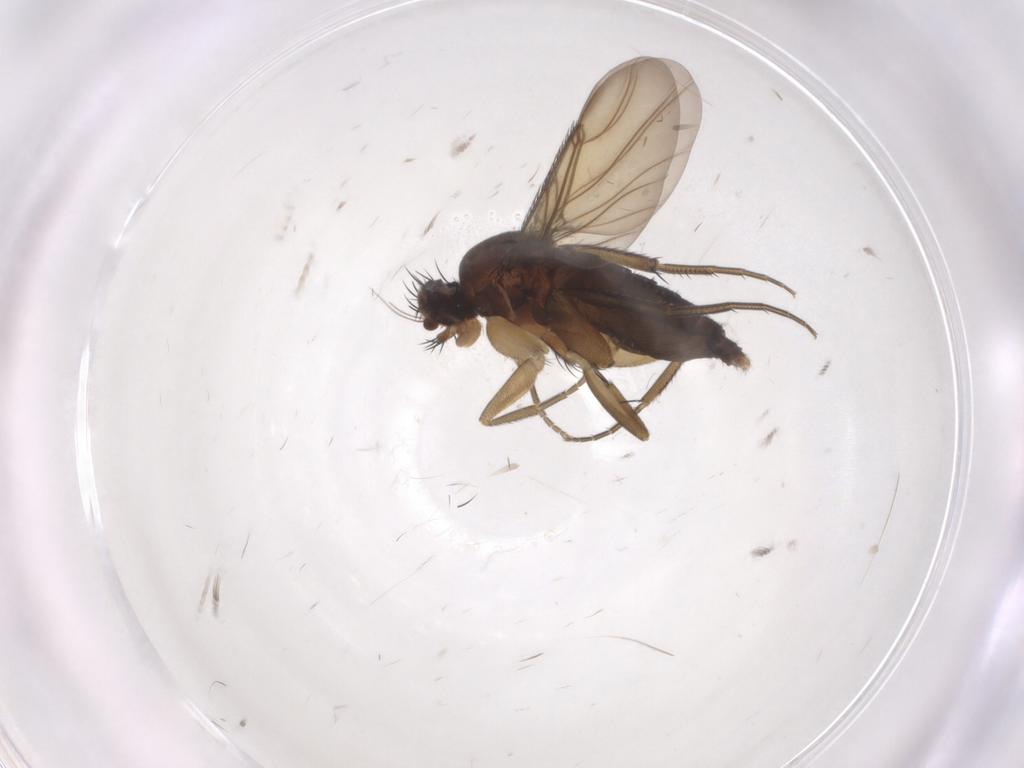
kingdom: Animalia
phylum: Arthropoda
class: Insecta
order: Diptera
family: Phoridae
